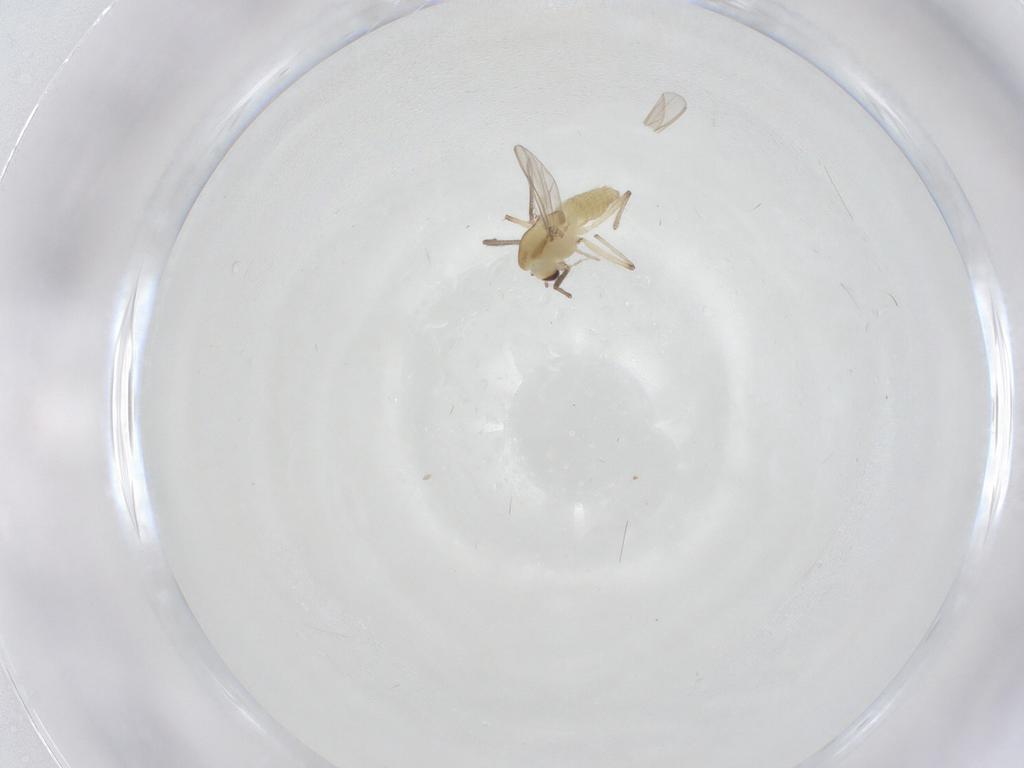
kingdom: Animalia
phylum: Arthropoda
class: Insecta
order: Diptera
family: Chironomidae
